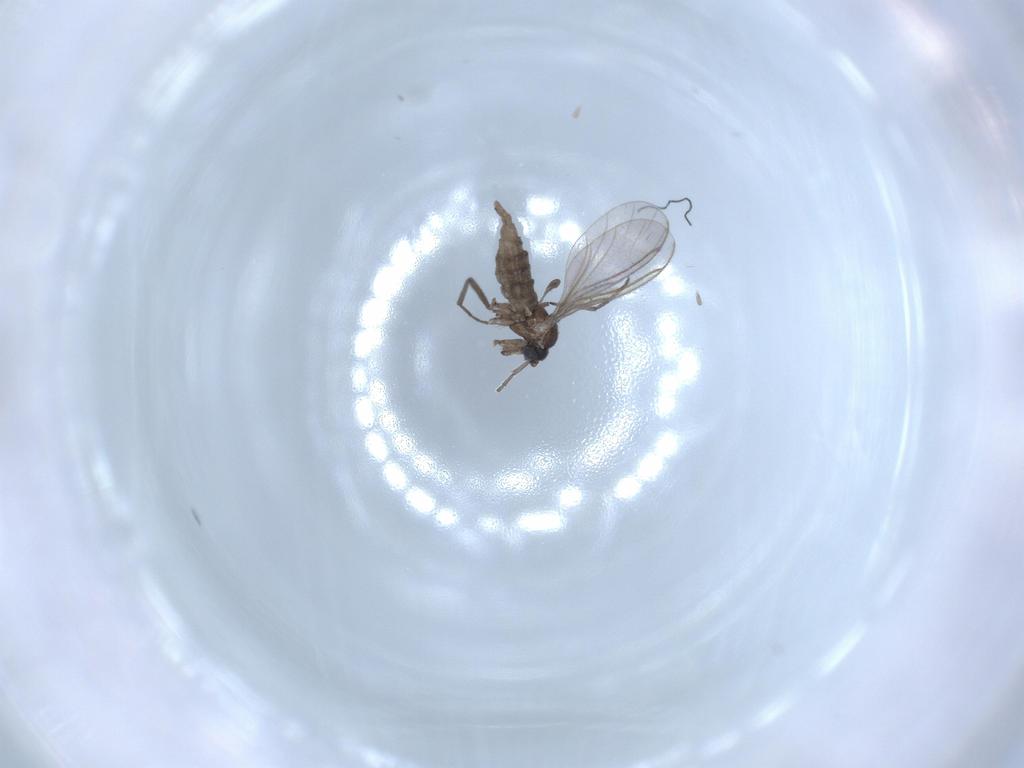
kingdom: Animalia
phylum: Arthropoda
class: Insecta
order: Diptera
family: Sciaridae
